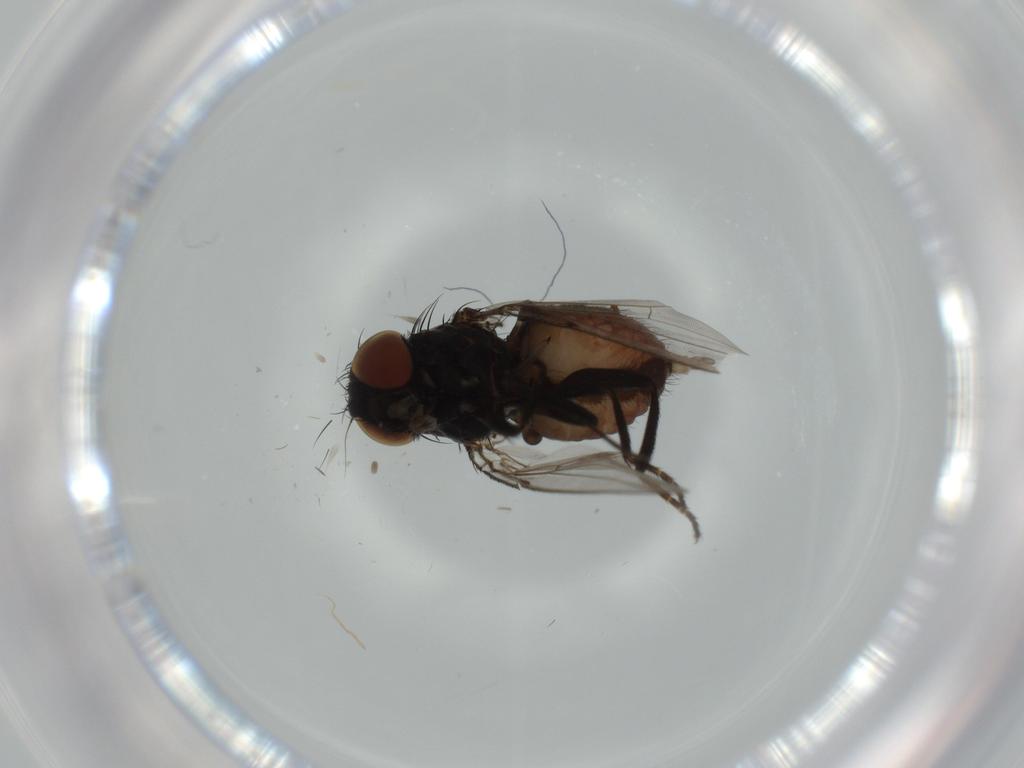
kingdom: Animalia
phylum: Arthropoda
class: Insecta
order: Diptera
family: Milichiidae
